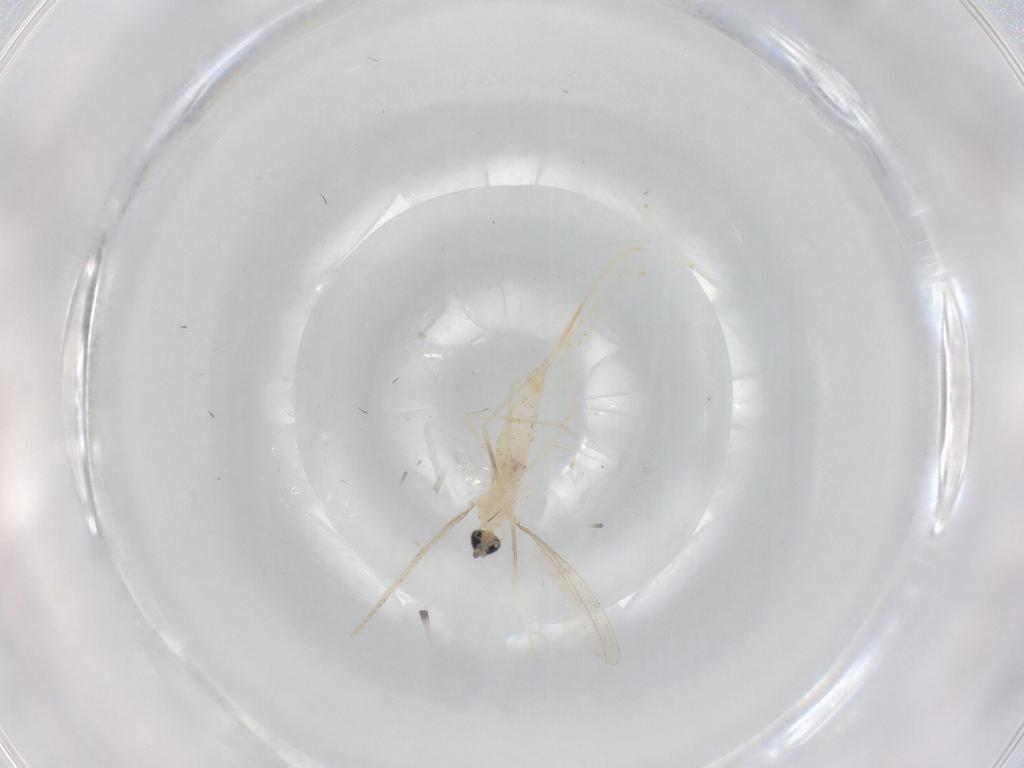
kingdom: Animalia
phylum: Arthropoda
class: Insecta
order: Diptera
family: Cecidomyiidae
